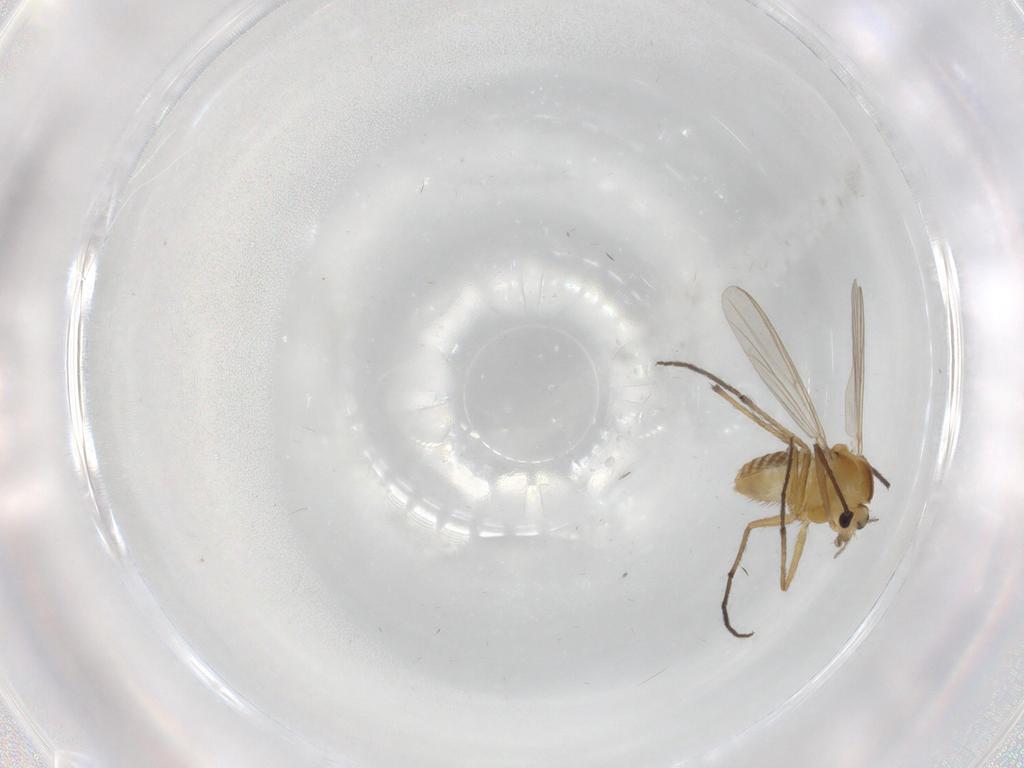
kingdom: Animalia
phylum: Arthropoda
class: Insecta
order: Diptera
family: Chironomidae
